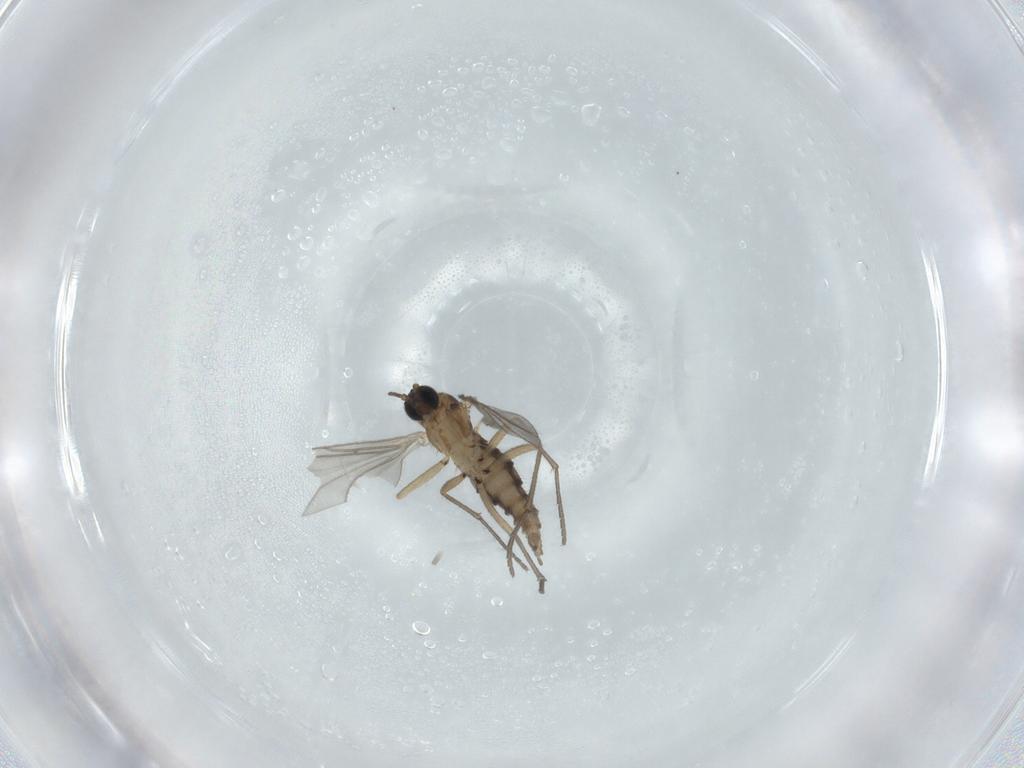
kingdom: Animalia
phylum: Arthropoda
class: Insecta
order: Diptera
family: Sciaridae
